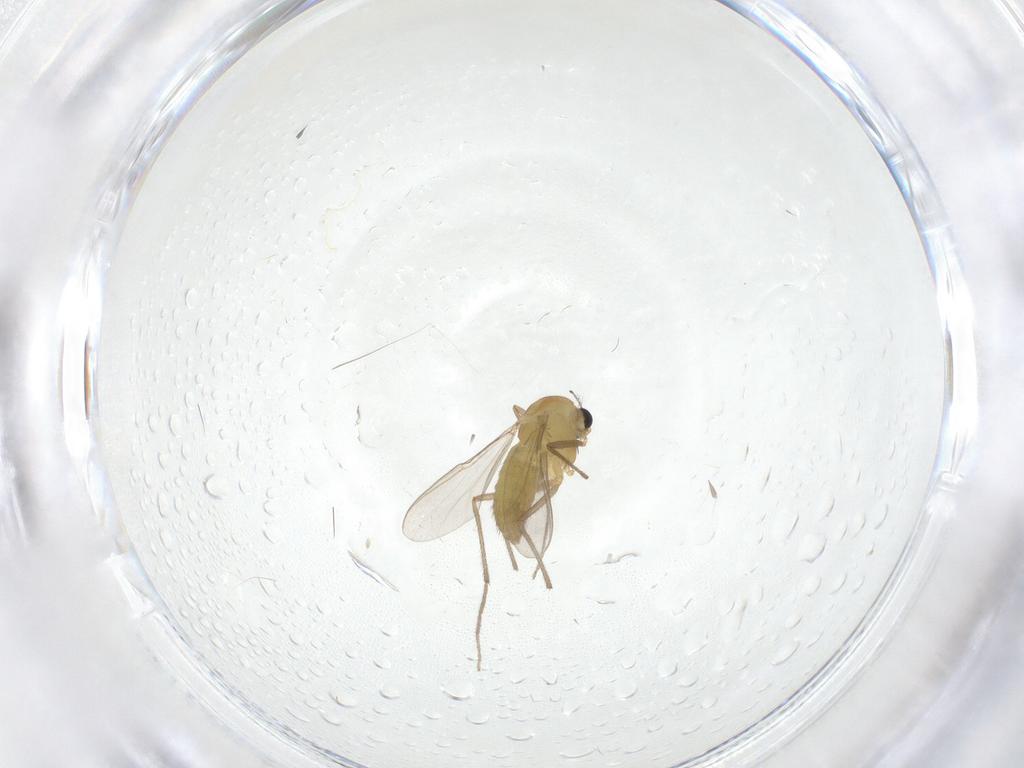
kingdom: Animalia
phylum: Arthropoda
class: Insecta
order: Diptera
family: Chironomidae
